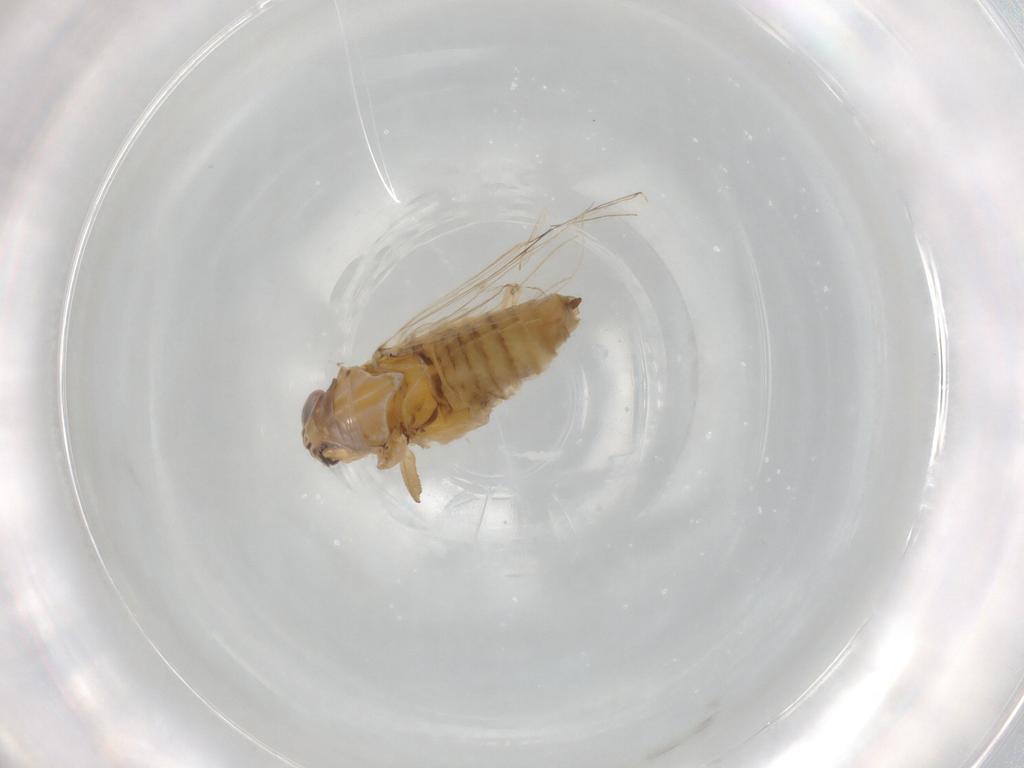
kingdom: Animalia
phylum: Arthropoda
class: Insecta
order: Hemiptera
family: Delphacidae
